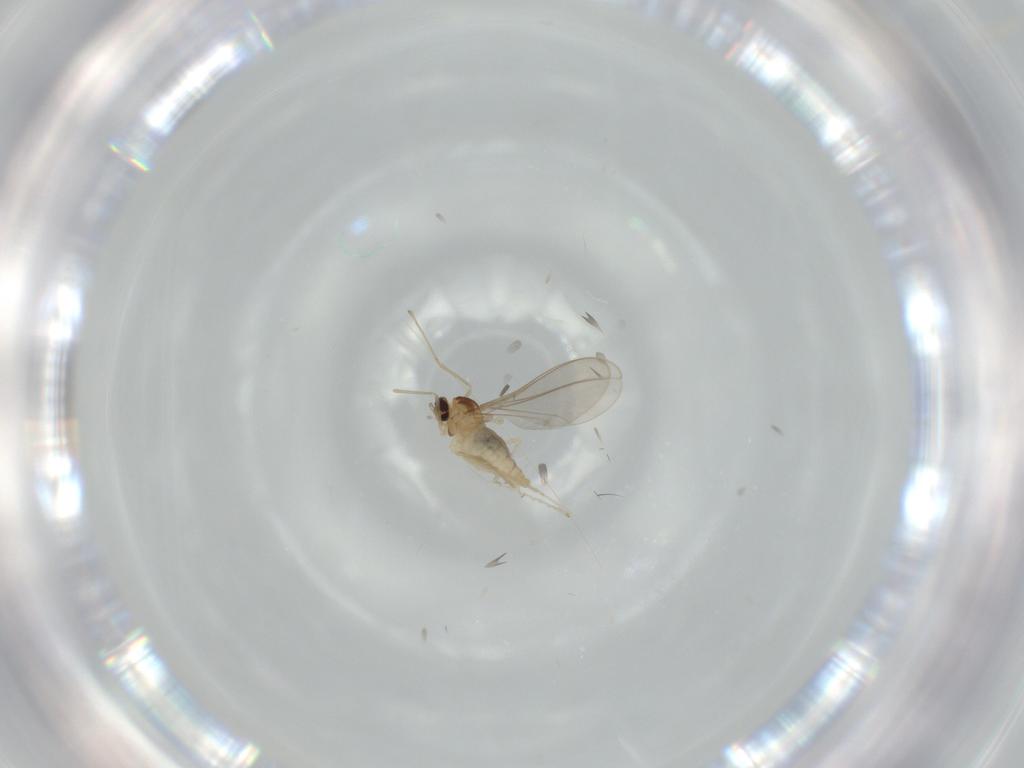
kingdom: Animalia
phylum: Arthropoda
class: Insecta
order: Diptera
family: Cecidomyiidae
